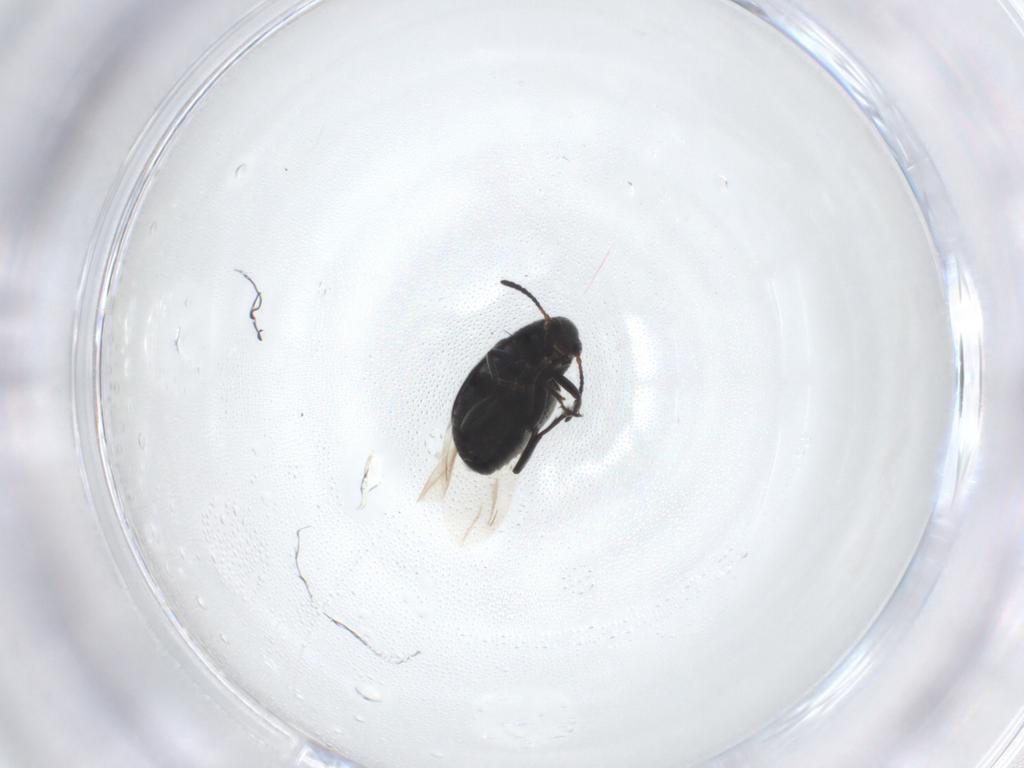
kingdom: Animalia
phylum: Arthropoda
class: Insecta
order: Coleoptera
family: Chrysomelidae
